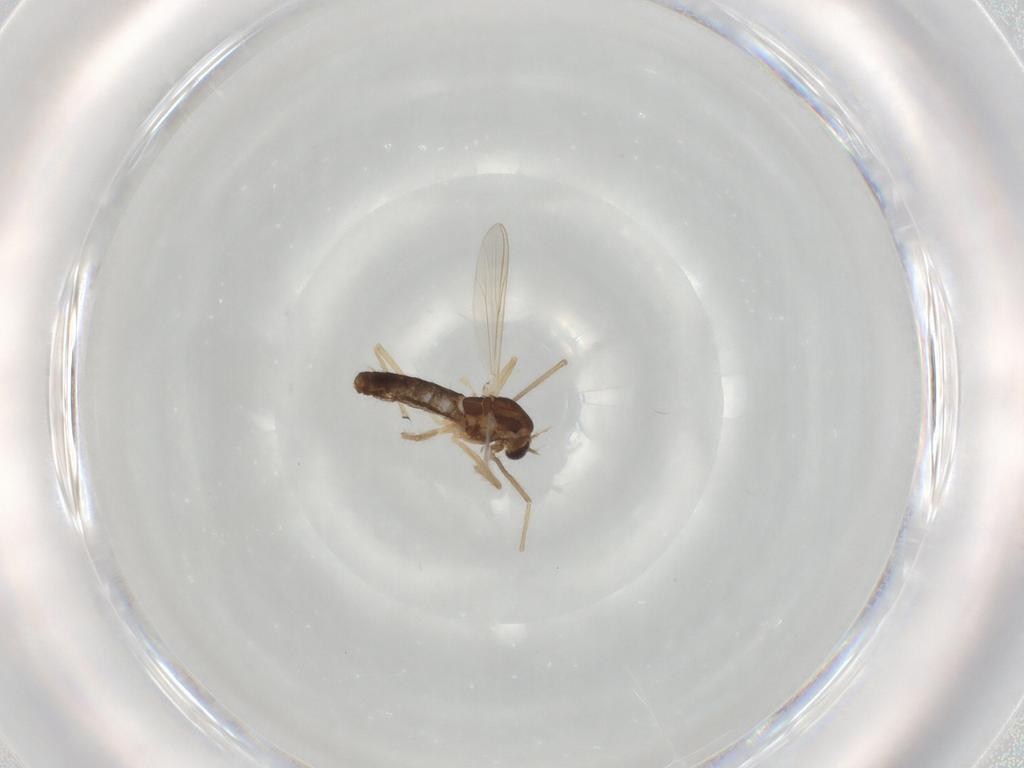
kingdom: Animalia
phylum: Arthropoda
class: Insecta
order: Diptera
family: Chironomidae
